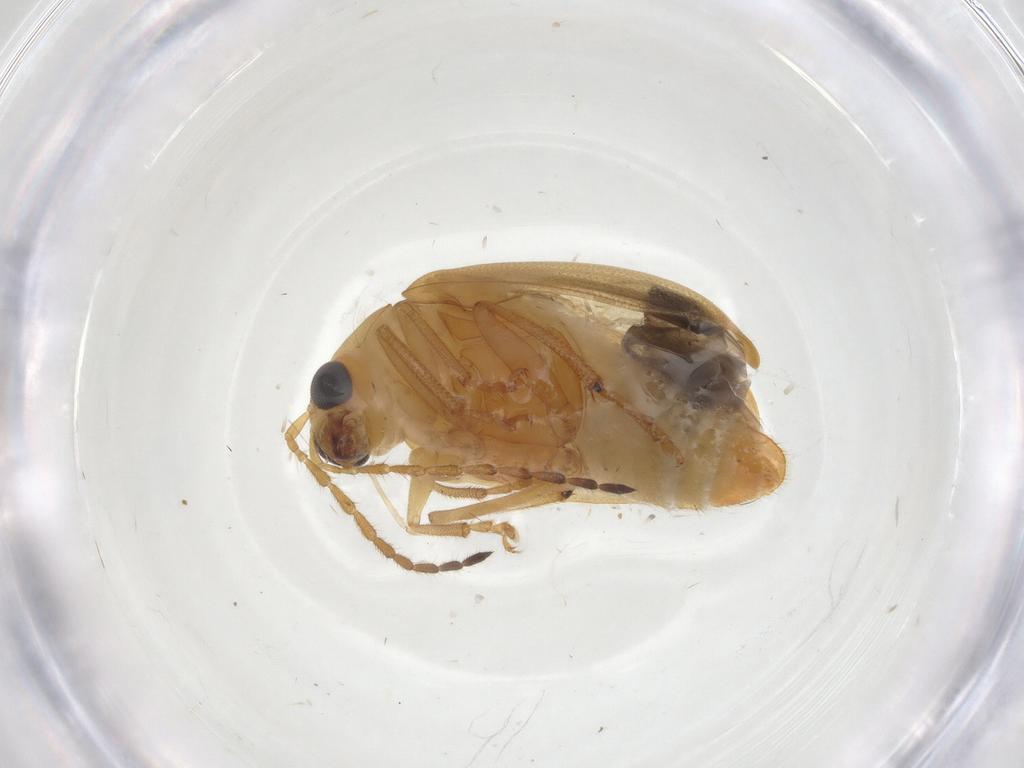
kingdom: Animalia
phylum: Arthropoda
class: Insecta
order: Coleoptera
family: Chrysomelidae
